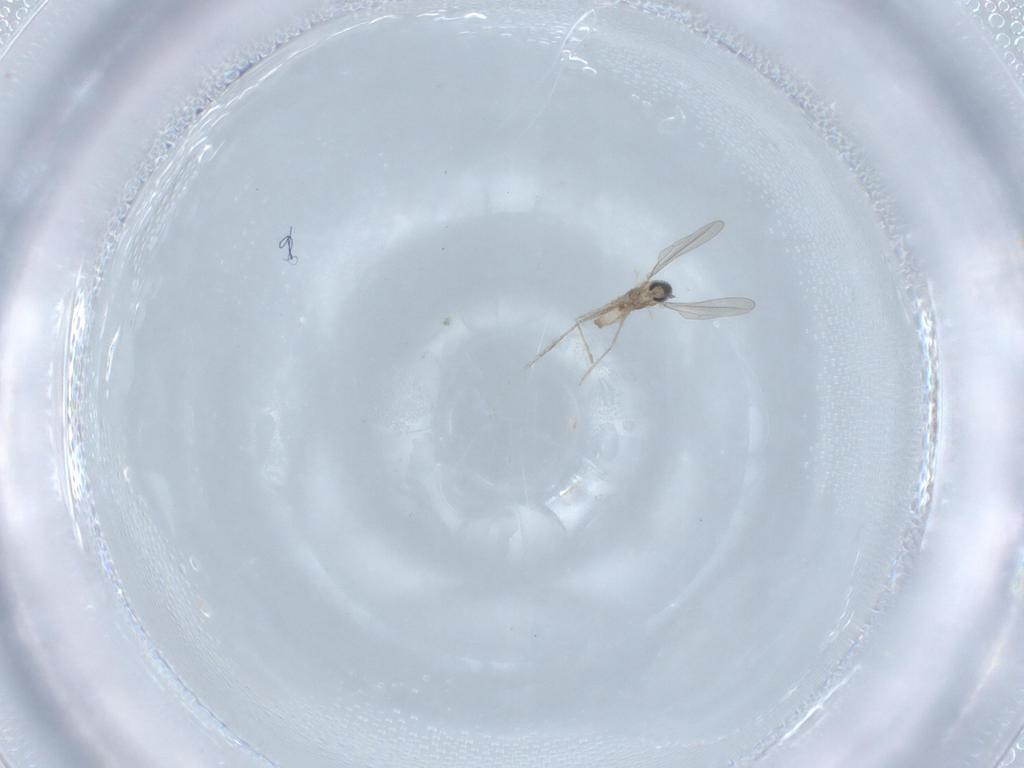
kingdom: Animalia
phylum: Arthropoda
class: Insecta
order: Diptera
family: Cecidomyiidae
